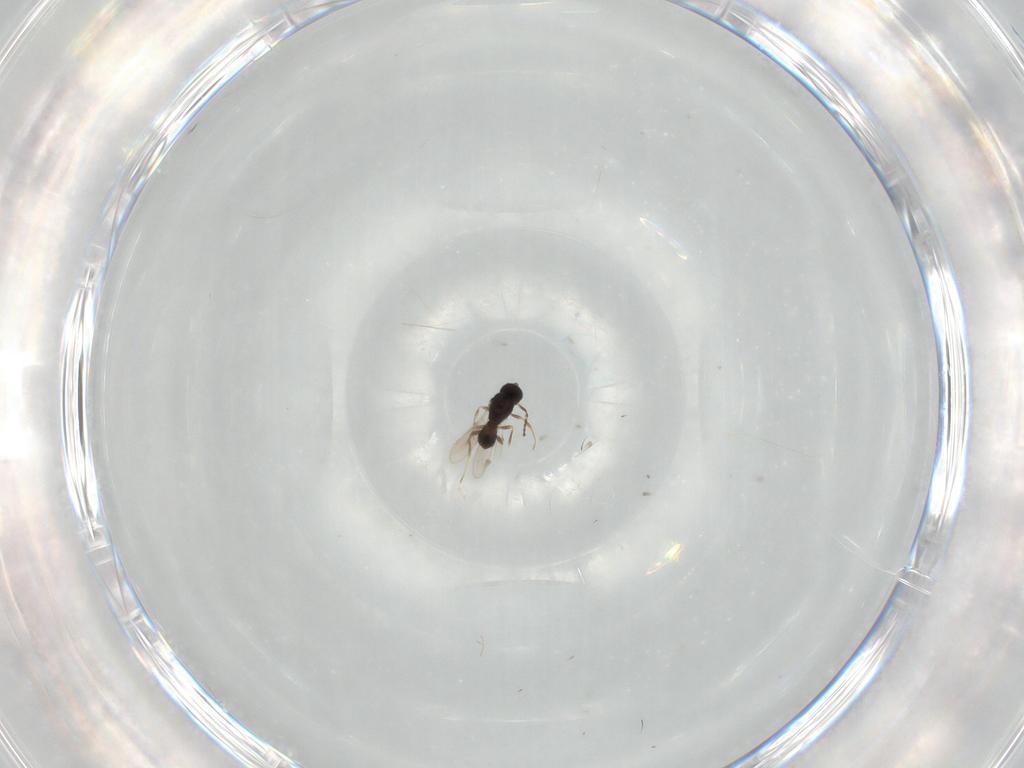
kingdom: Animalia
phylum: Arthropoda
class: Insecta
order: Hymenoptera
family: Scelionidae
